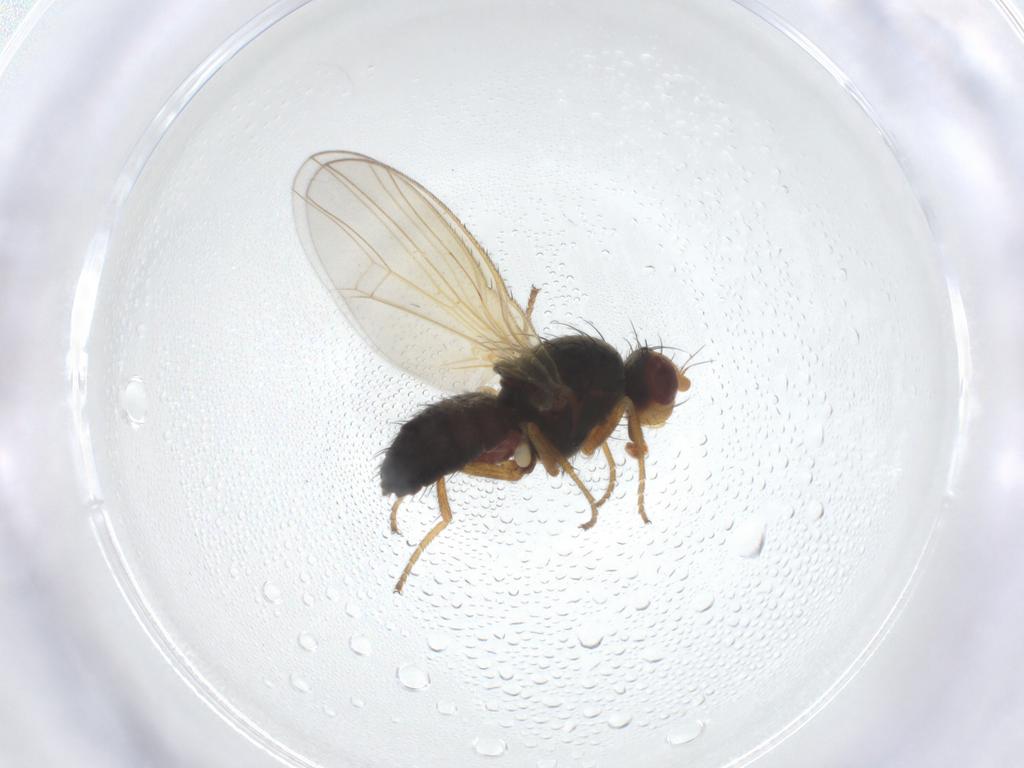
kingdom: Animalia
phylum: Arthropoda
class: Insecta
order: Diptera
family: Heleomyzidae
